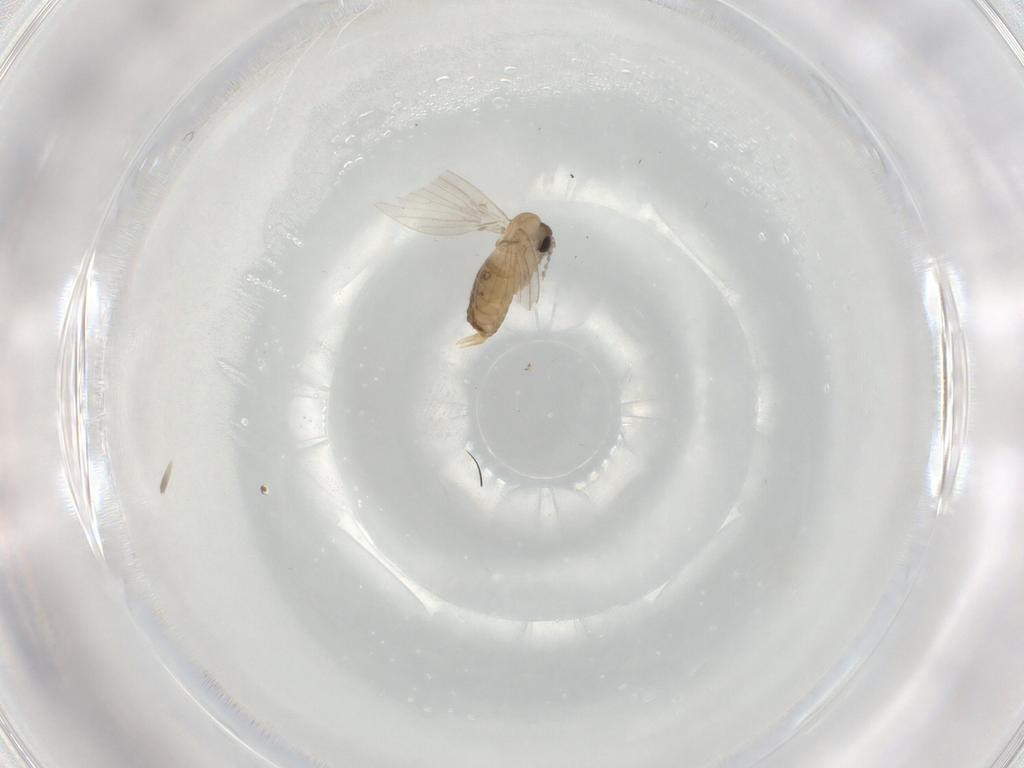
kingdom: Animalia
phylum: Arthropoda
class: Insecta
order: Diptera
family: Psychodidae
